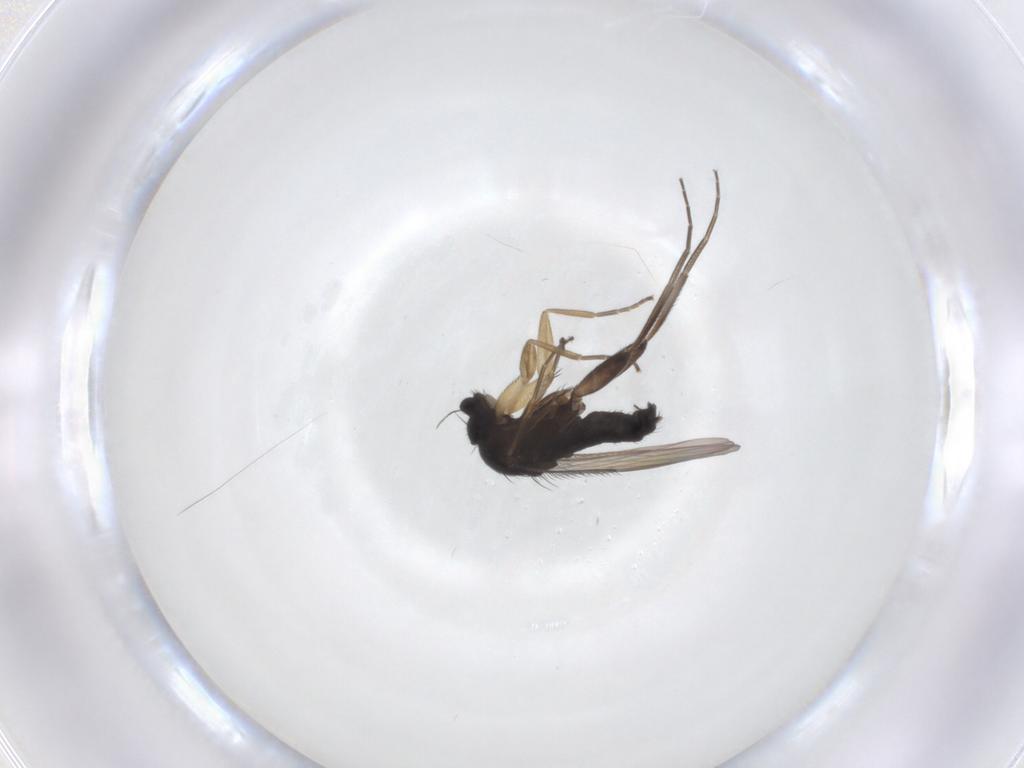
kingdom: Animalia
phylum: Arthropoda
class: Insecta
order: Diptera
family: Phoridae
